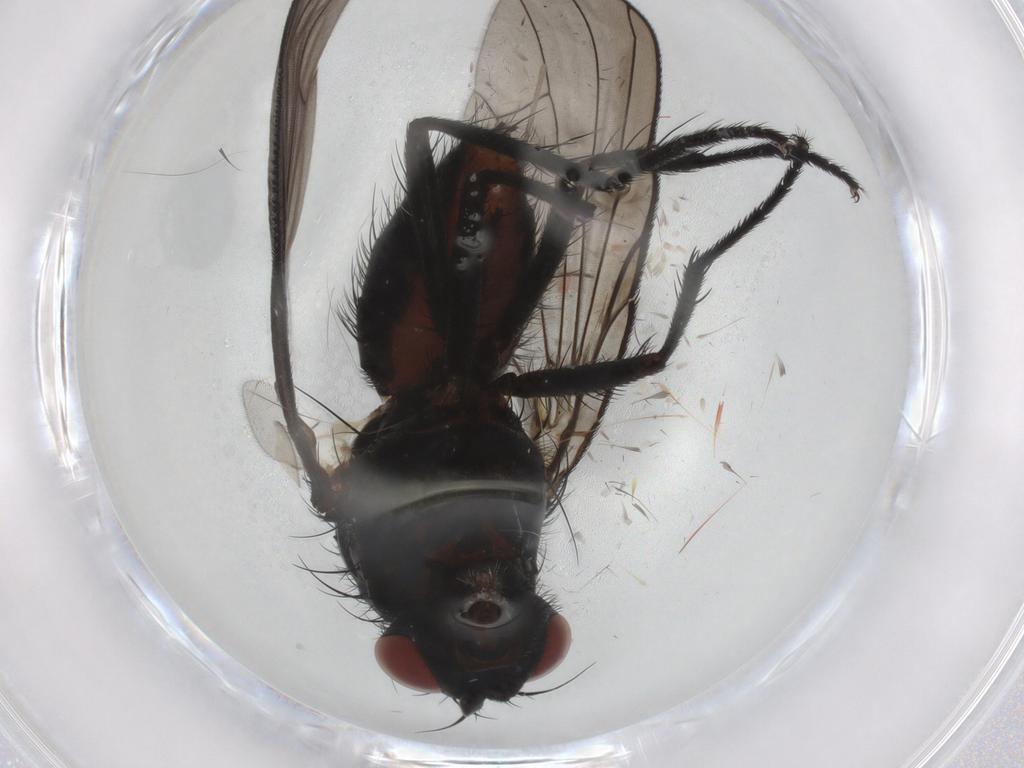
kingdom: Animalia
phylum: Arthropoda
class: Insecta
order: Diptera
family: Anthomyiidae
